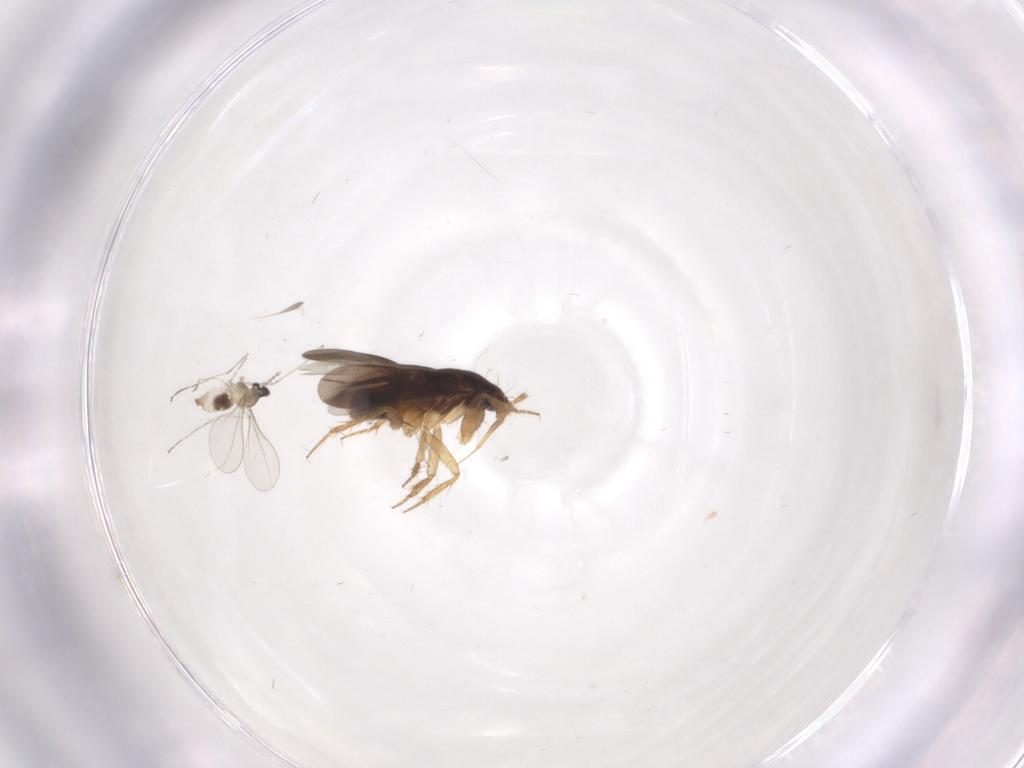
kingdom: Animalia
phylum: Arthropoda
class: Insecta
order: Hemiptera
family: Ceratocombidae
